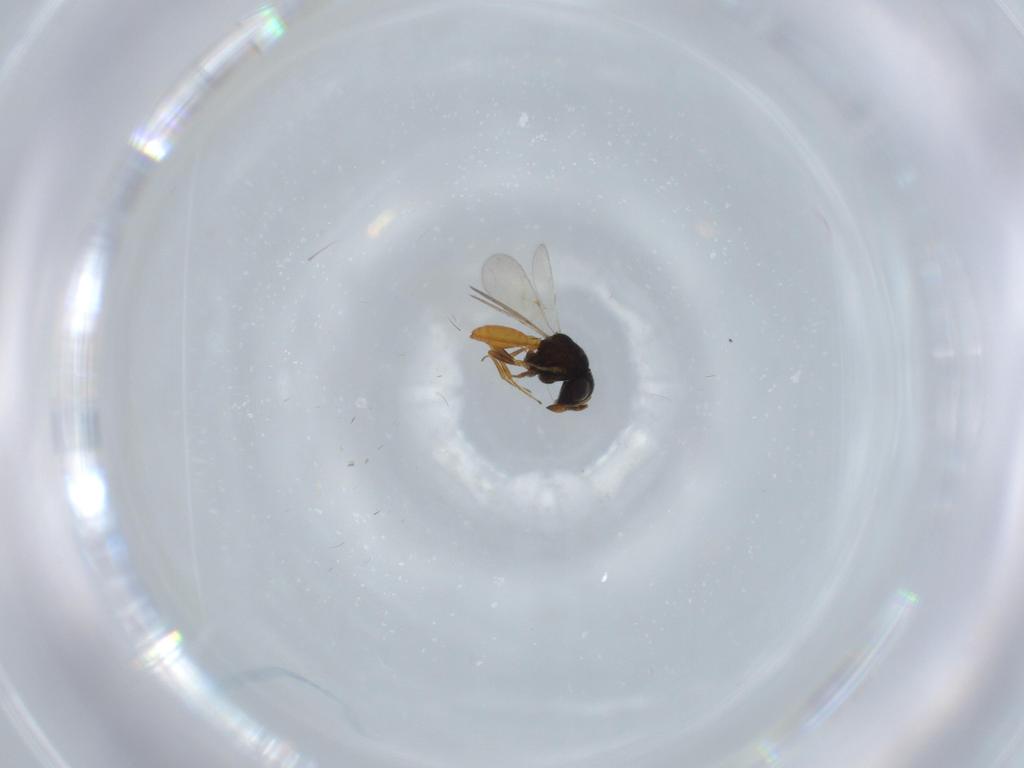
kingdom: Animalia
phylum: Arthropoda
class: Insecta
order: Hymenoptera
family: Scelionidae
